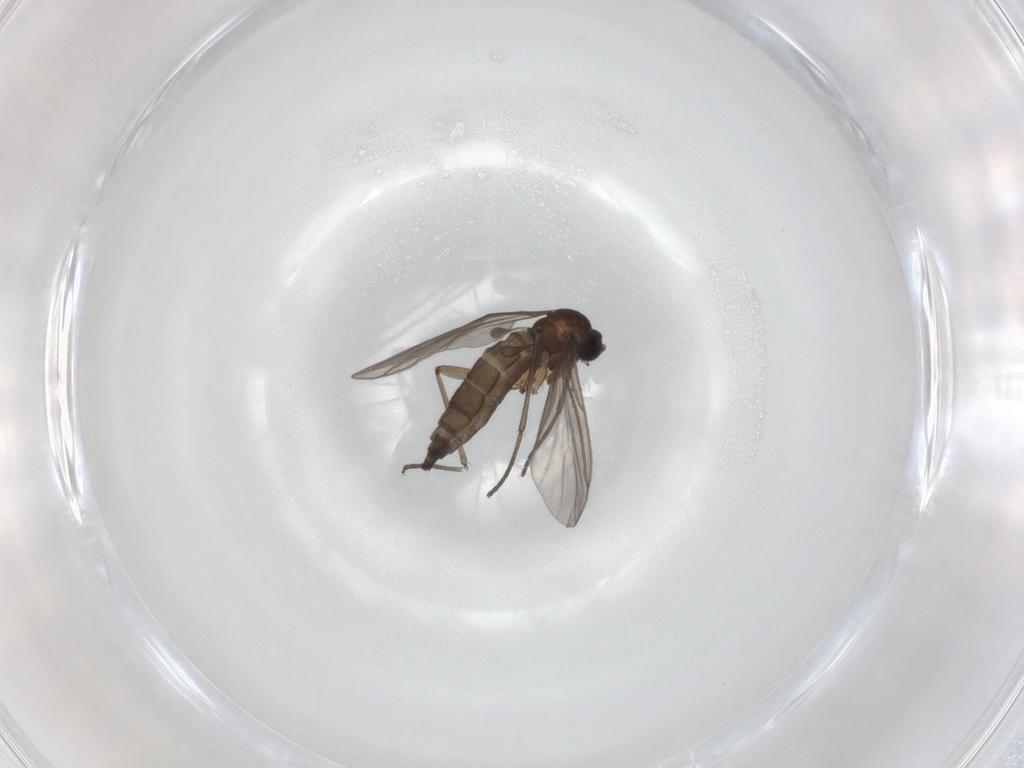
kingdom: Animalia
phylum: Arthropoda
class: Insecta
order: Diptera
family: Sciaridae
